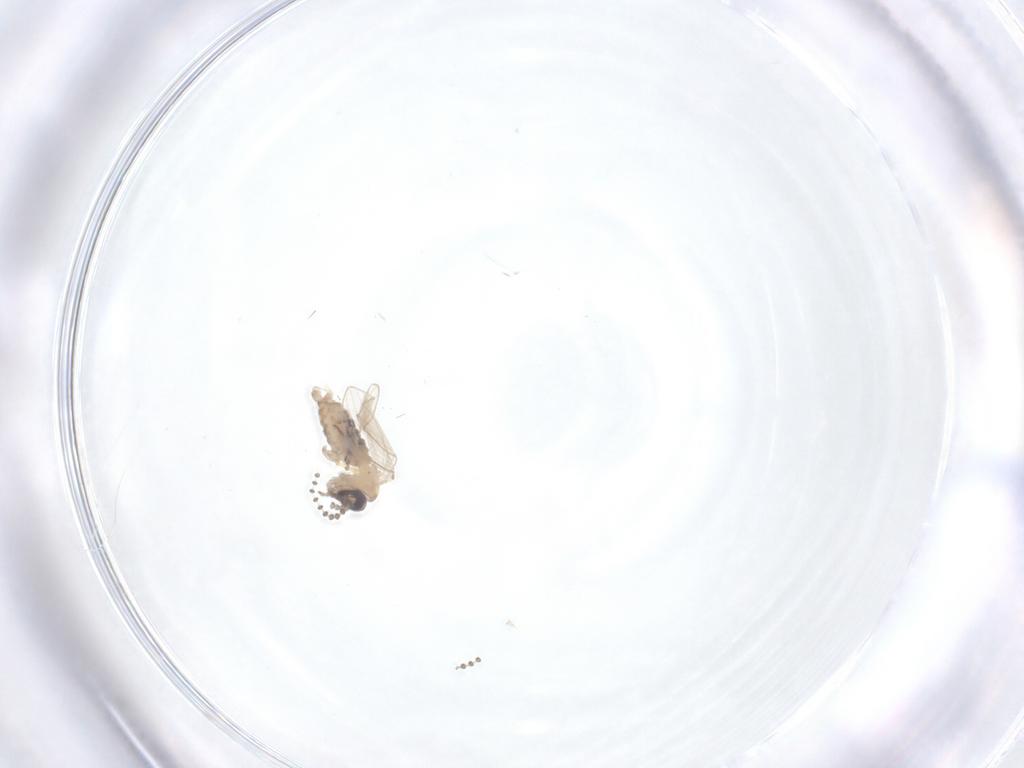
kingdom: Animalia
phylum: Arthropoda
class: Insecta
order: Diptera
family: Psychodidae
